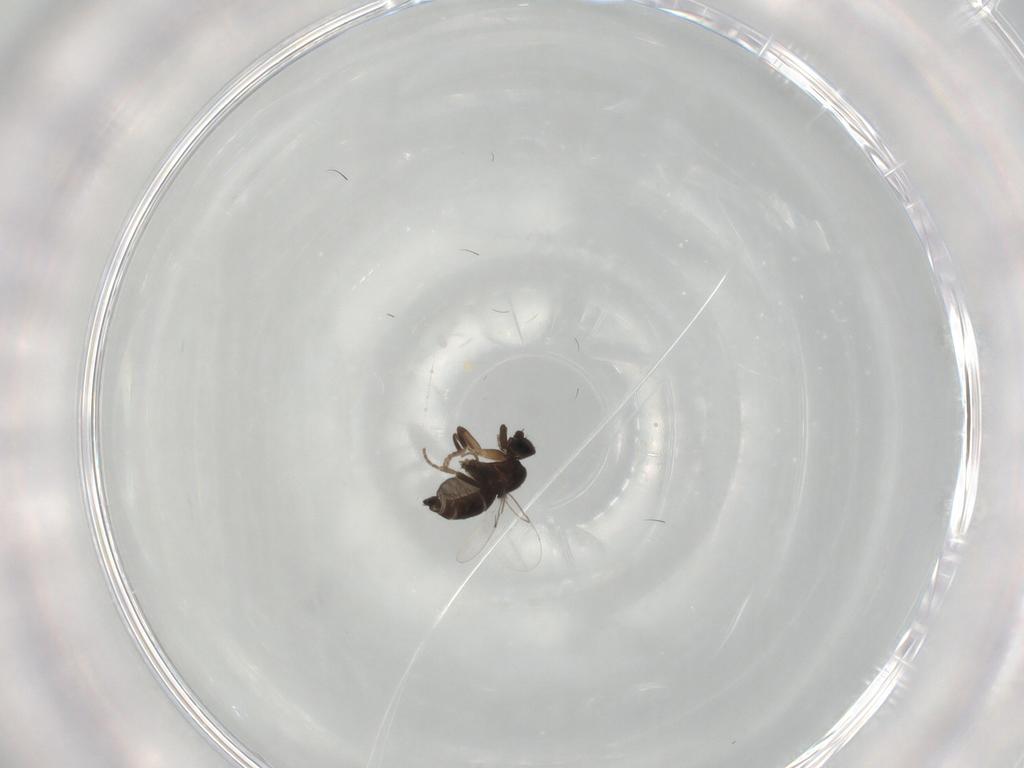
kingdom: Animalia
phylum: Arthropoda
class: Insecta
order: Diptera
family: Phoridae
